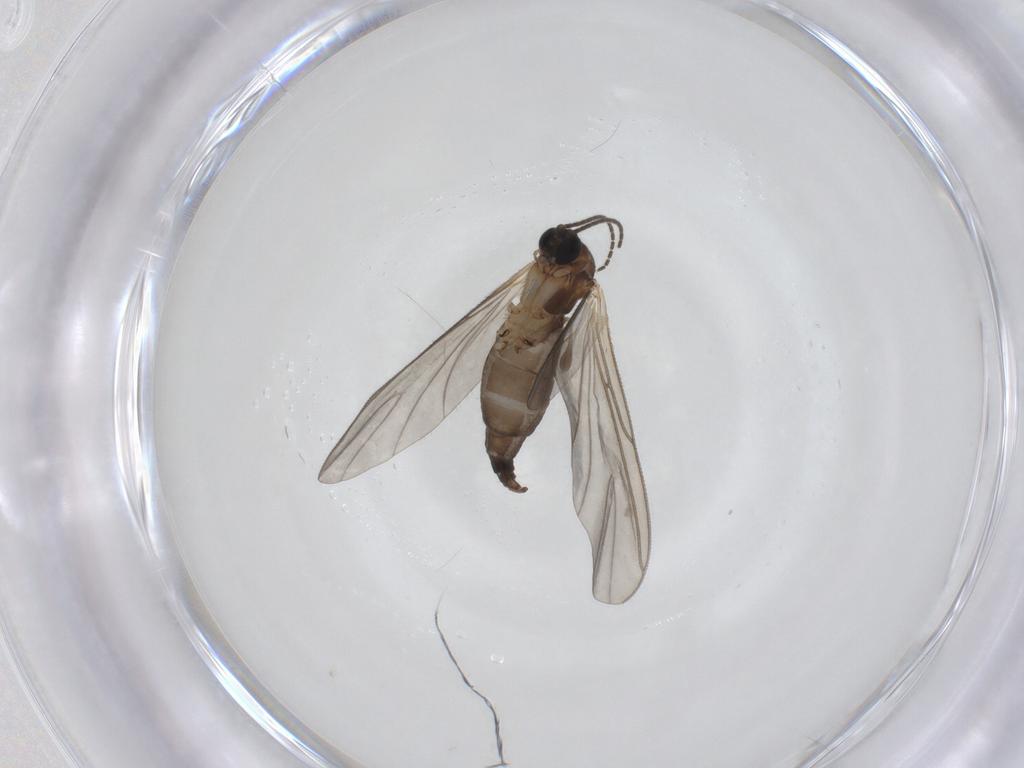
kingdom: Animalia
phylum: Arthropoda
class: Insecta
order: Diptera
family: Sciaridae
